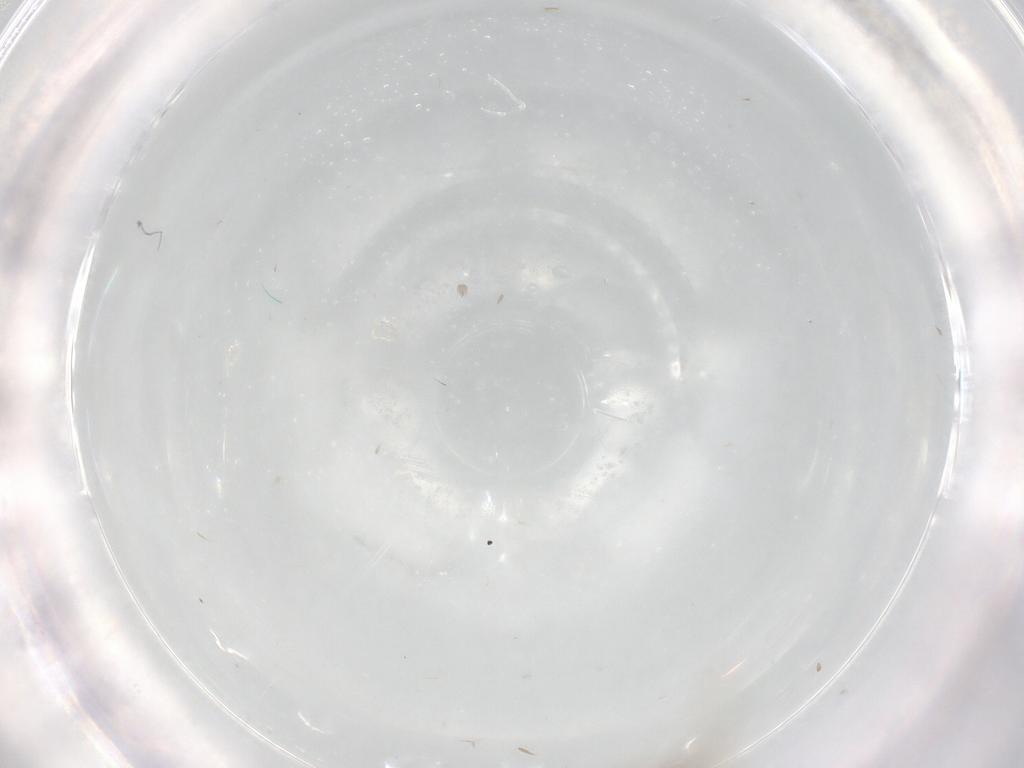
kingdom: Animalia
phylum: Arthropoda
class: Insecta
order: Diptera
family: Cecidomyiidae
